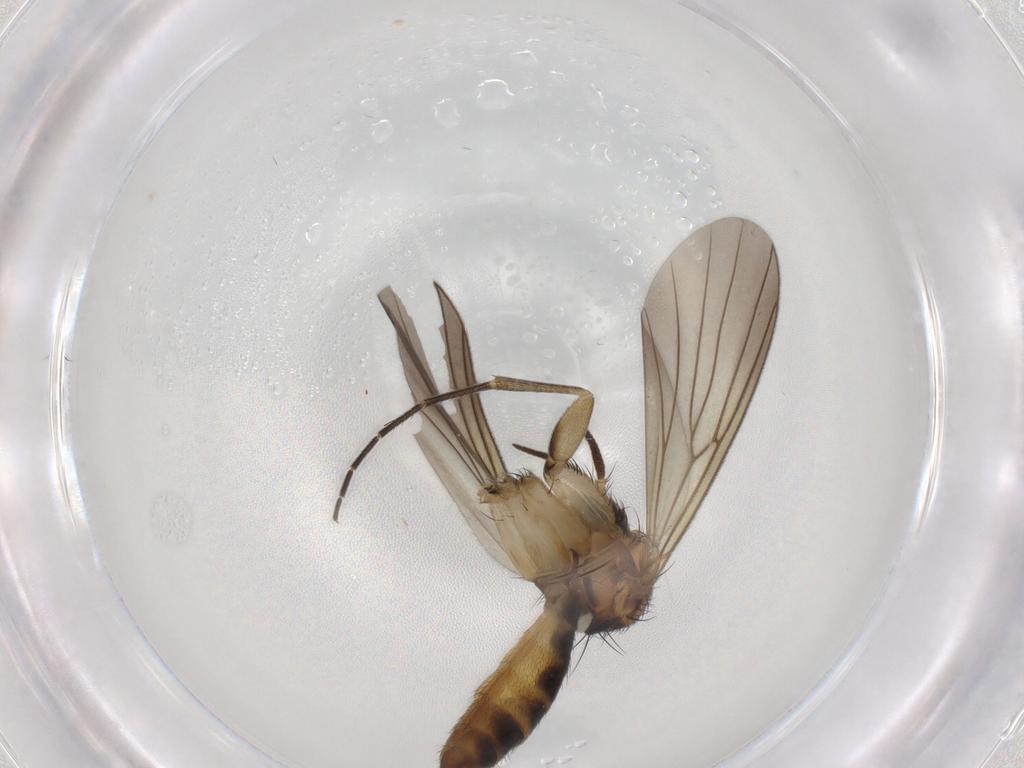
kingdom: Animalia
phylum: Arthropoda
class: Insecta
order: Diptera
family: Mycetophilidae
